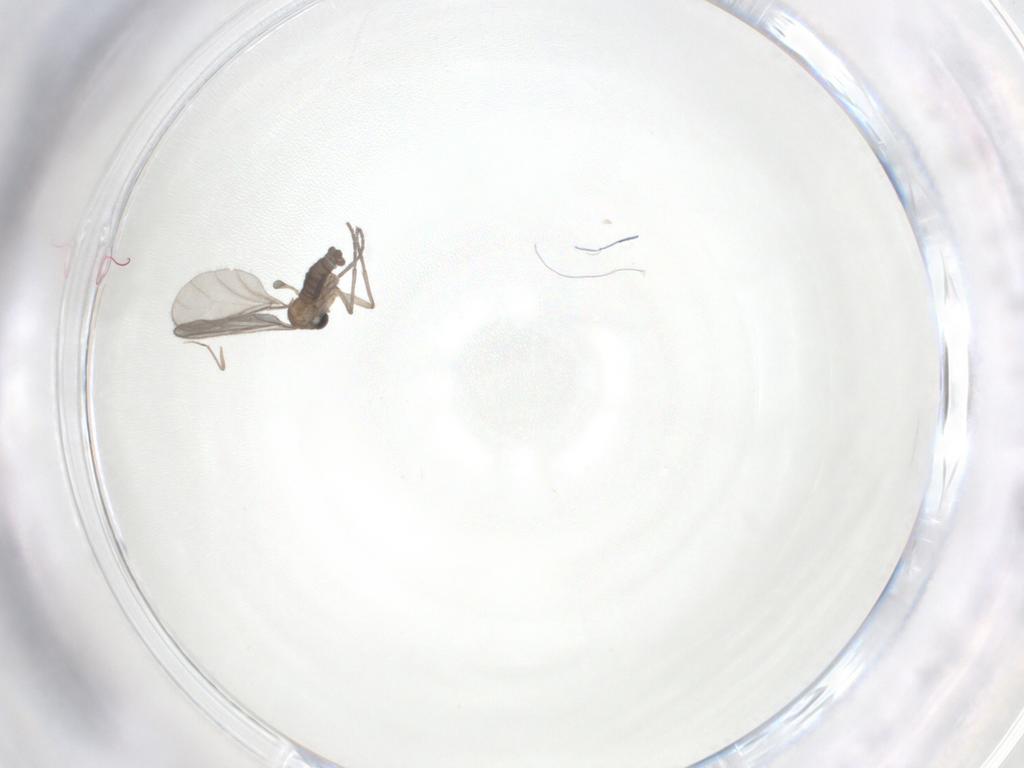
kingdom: Animalia
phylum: Arthropoda
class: Insecta
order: Diptera
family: Sciaridae
